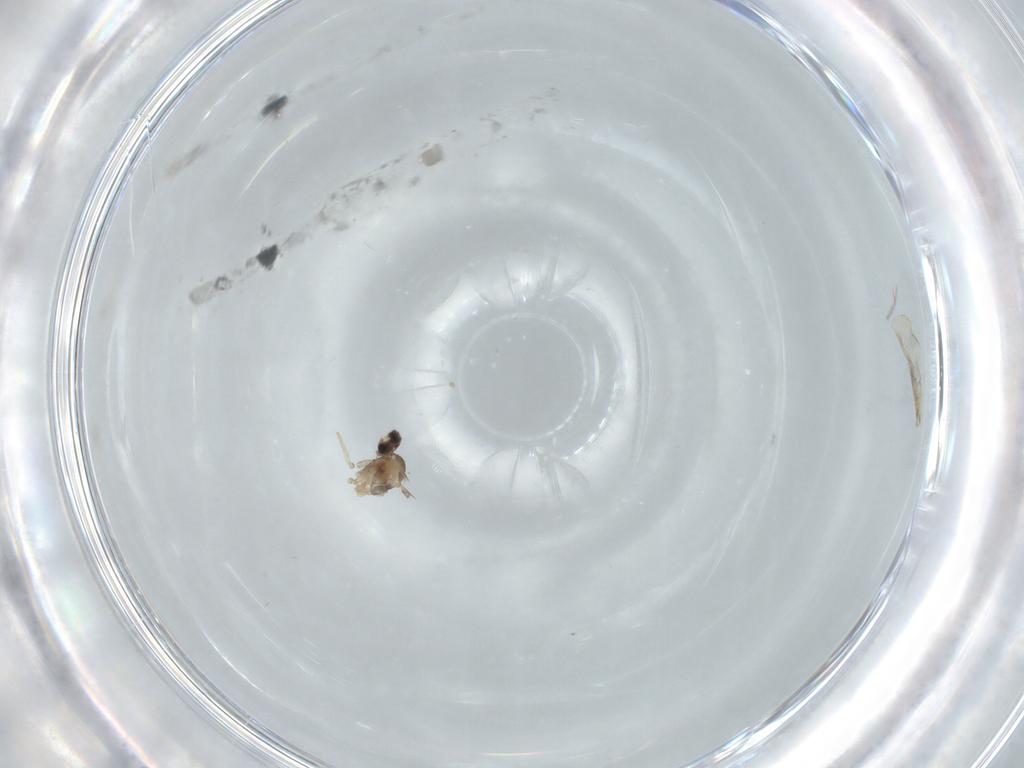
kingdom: Animalia
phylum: Arthropoda
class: Insecta
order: Diptera
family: Cecidomyiidae
